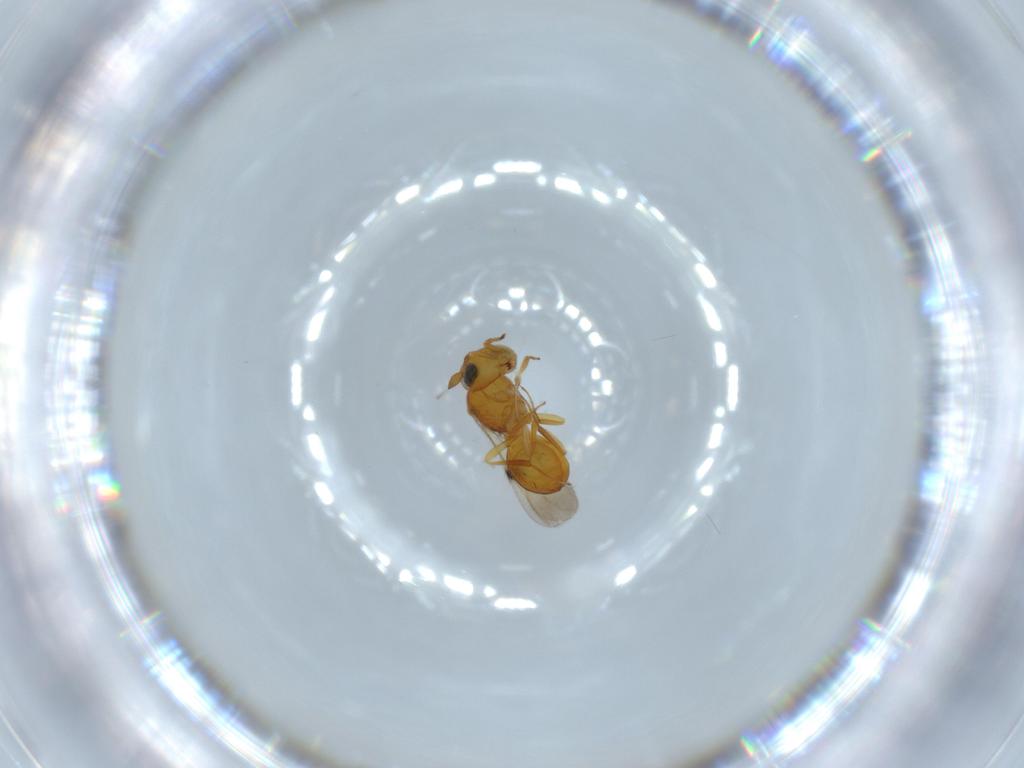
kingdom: Animalia
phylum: Arthropoda
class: Insecta
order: Hymenoptera
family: Scelionidae
